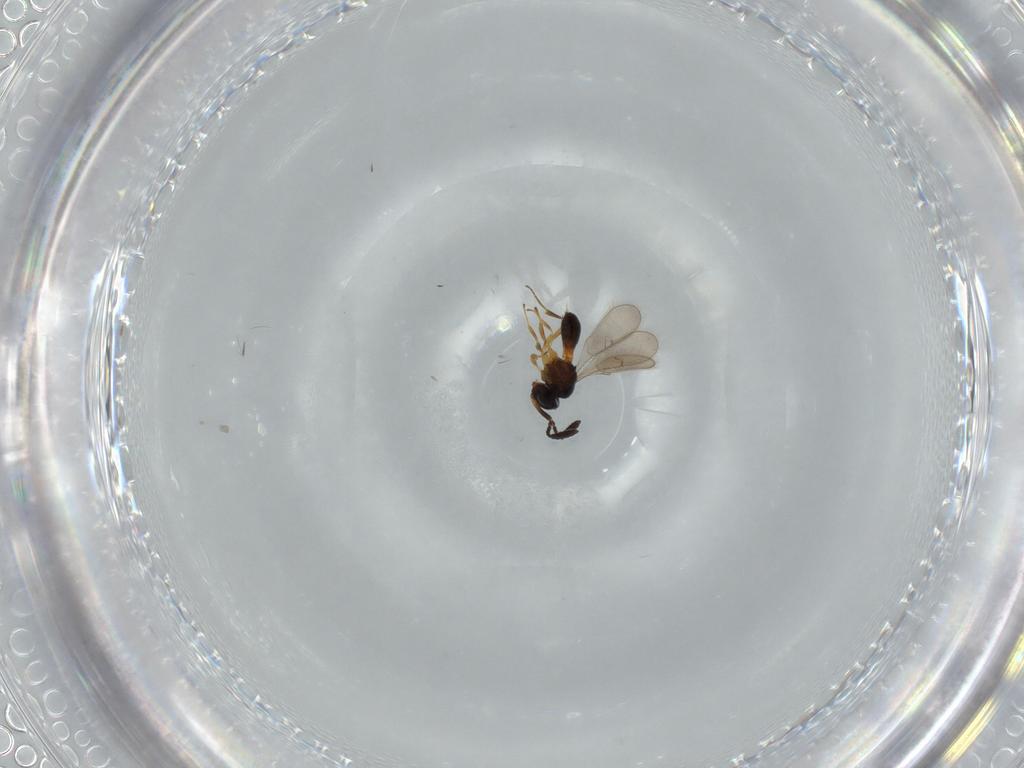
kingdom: Animalia
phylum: Arthropoda
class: Insecta
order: Hymenoptera
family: Scelionidae
